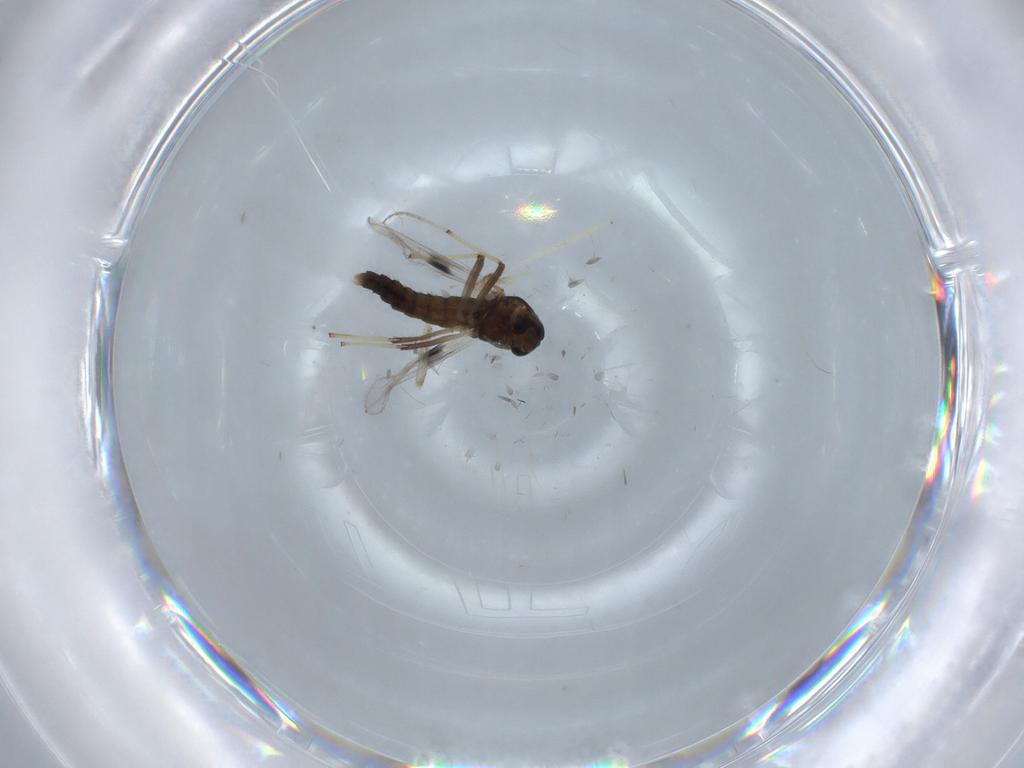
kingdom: Animalia
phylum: Arthropoda
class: Insecta
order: Diptera
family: Chironomidae
